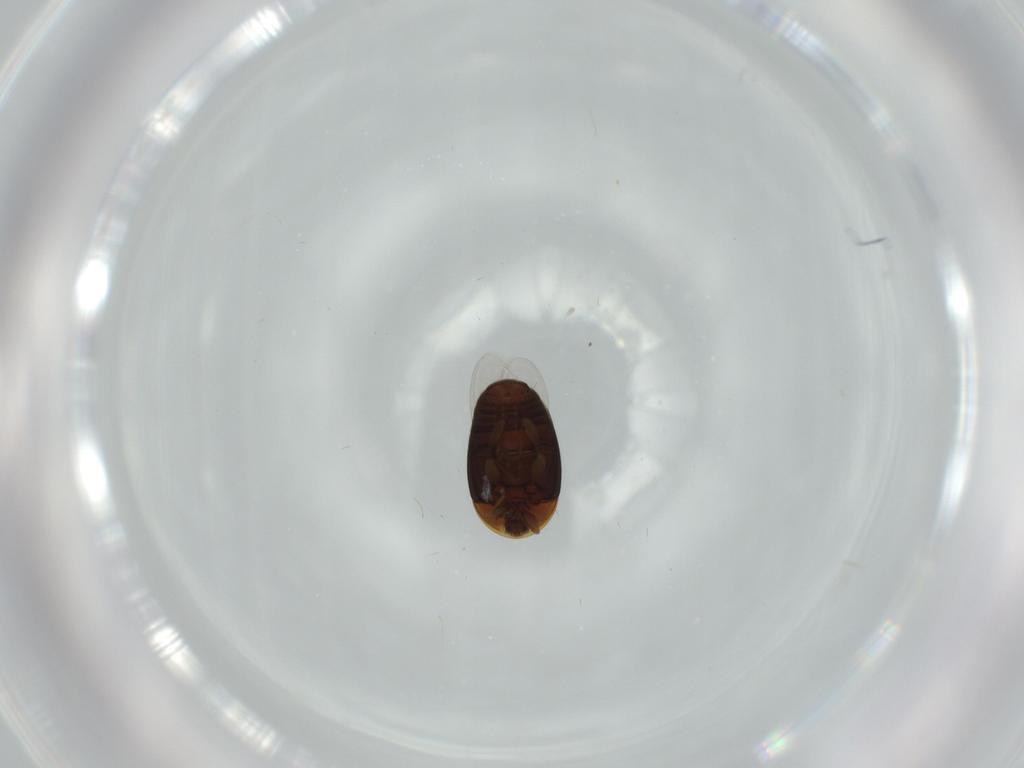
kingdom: Animalia
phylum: Arthropoda
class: Insecta
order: Coleoptera
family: Corylophidae
